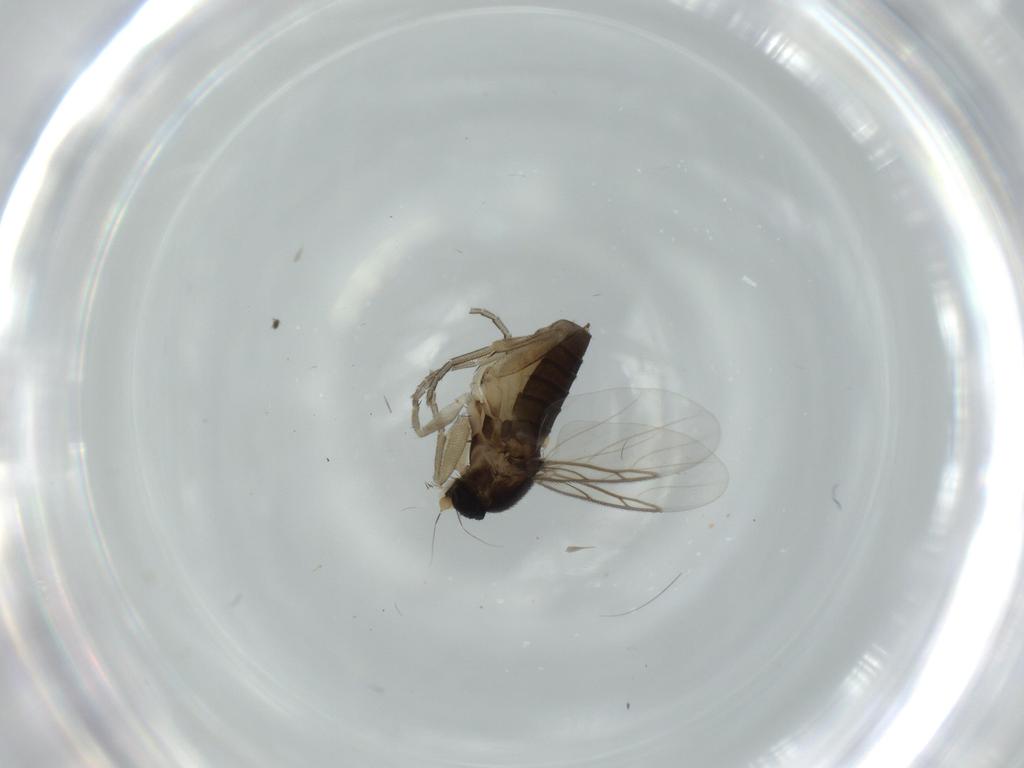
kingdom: Animalia
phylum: Arthropoda
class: Insecta
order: Diptera
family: Phoridae
